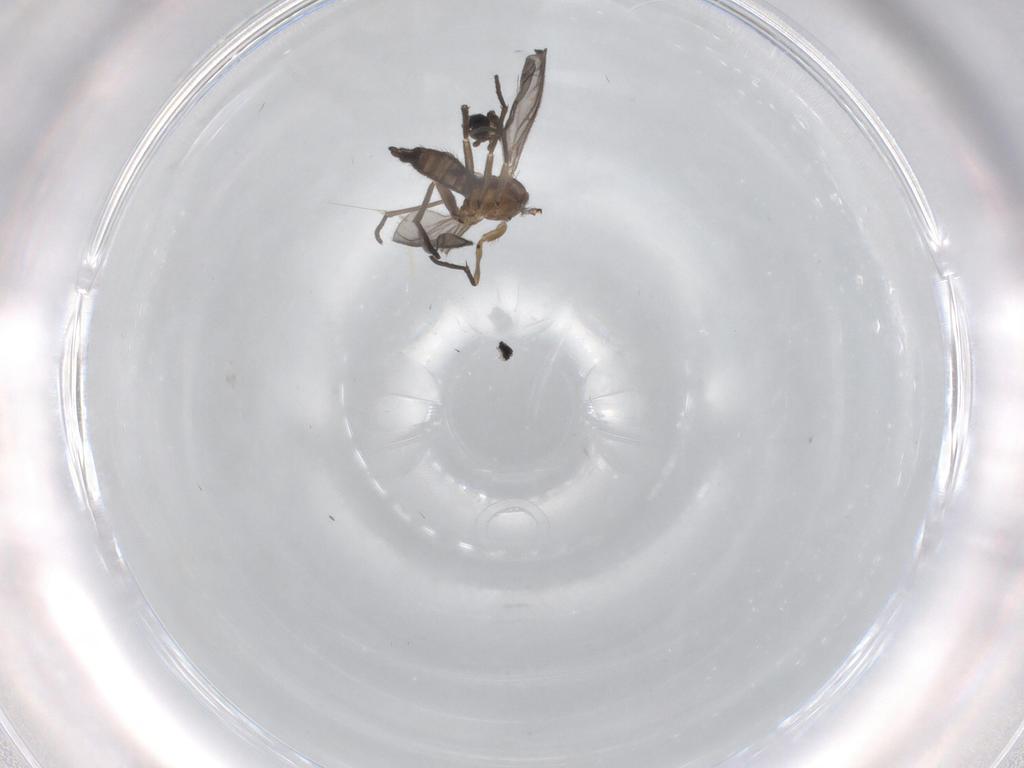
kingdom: Animalia
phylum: Arthropoda
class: Insecta
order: Diptera
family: Sciaridae
